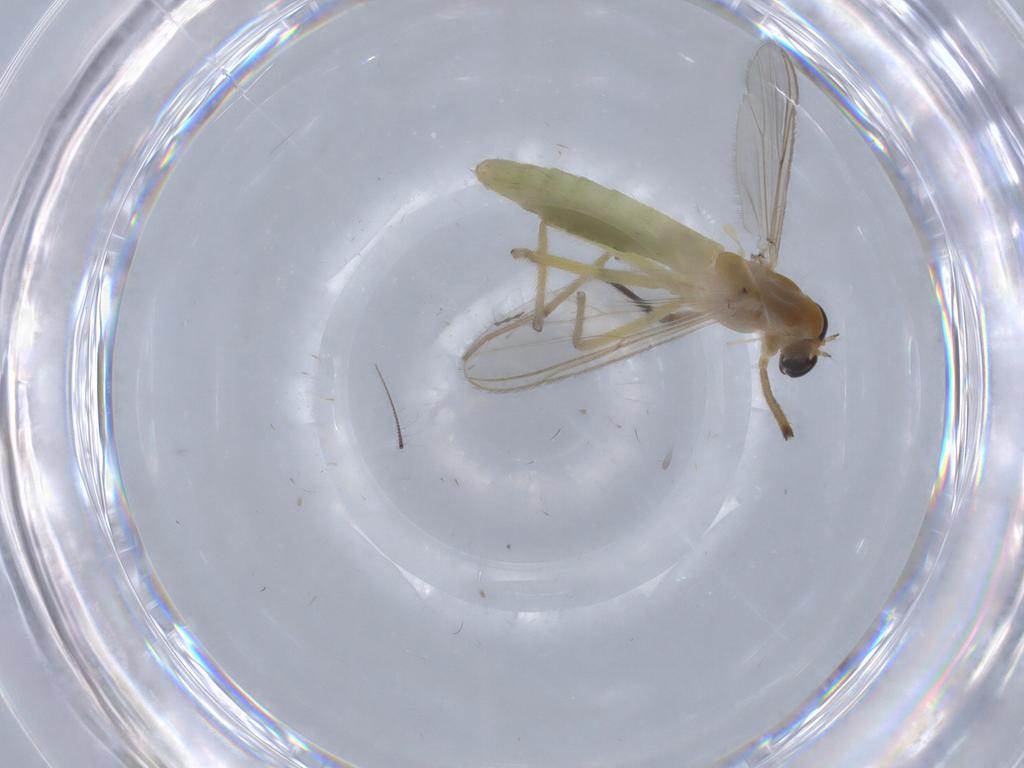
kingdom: Animalia
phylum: Arthropoda
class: Insecta
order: Diptera
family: Chironomidae
